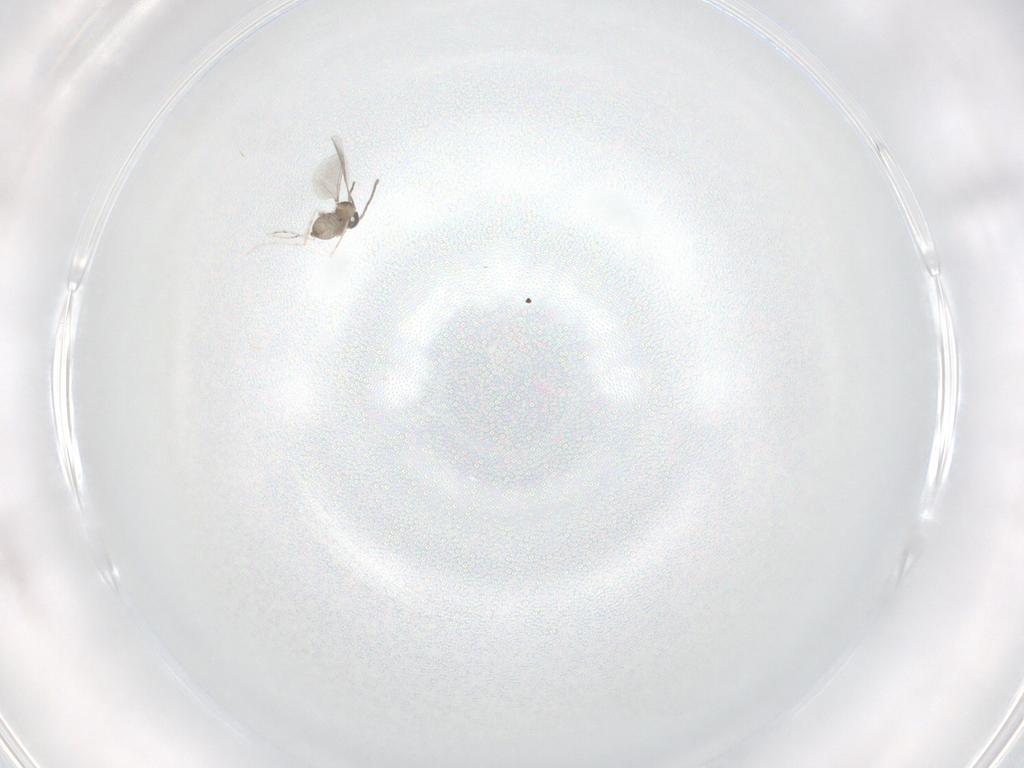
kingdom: Animalia
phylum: Arthropoda
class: Insecta
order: Diptera
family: Cecidomyiidae
